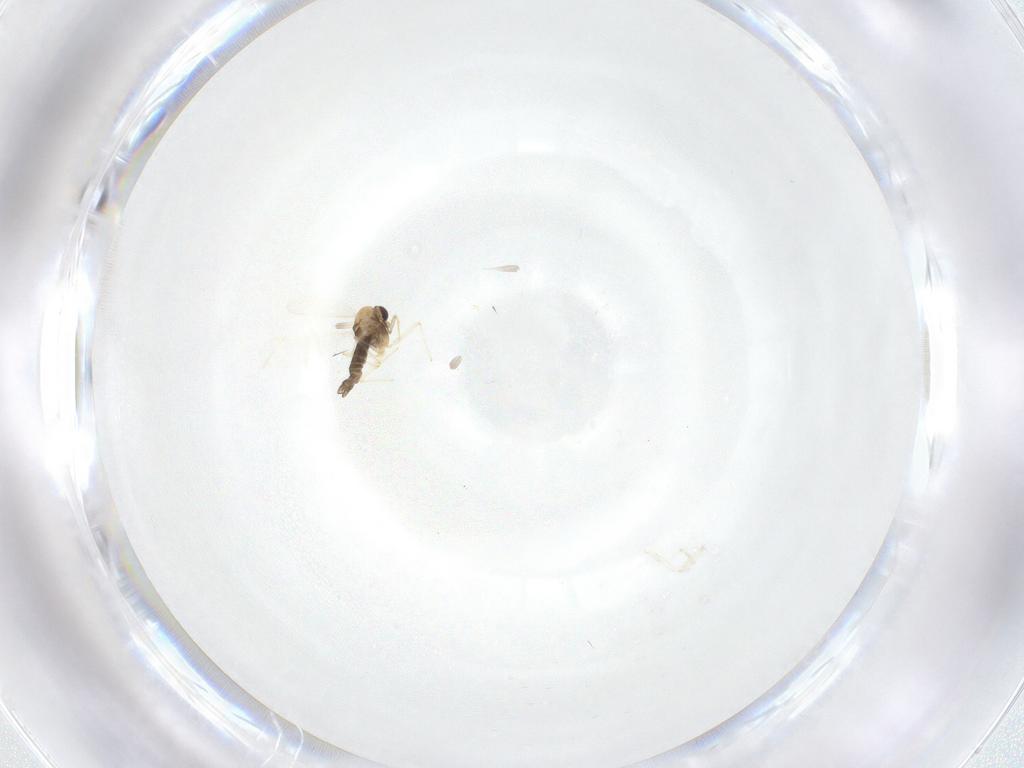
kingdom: Animalia
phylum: Arthropoda
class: Insecta
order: Diptera
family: Chironomidae
